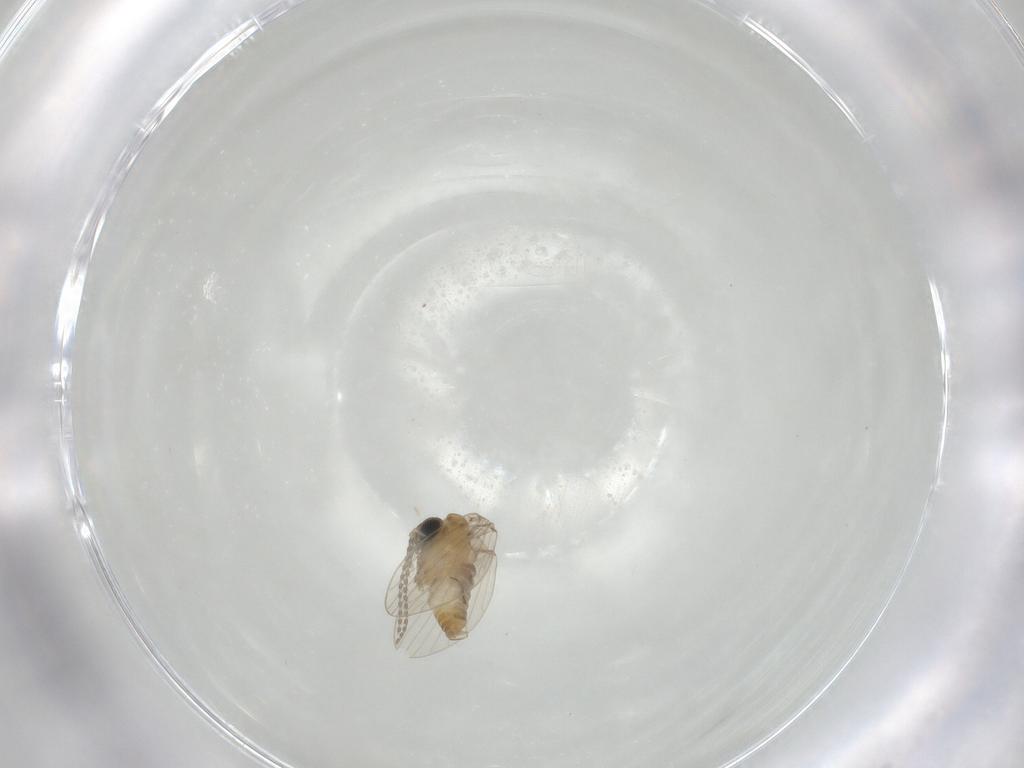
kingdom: Animalia
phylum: Arthropoda
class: Insecta
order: Diptera
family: Psychodidae
